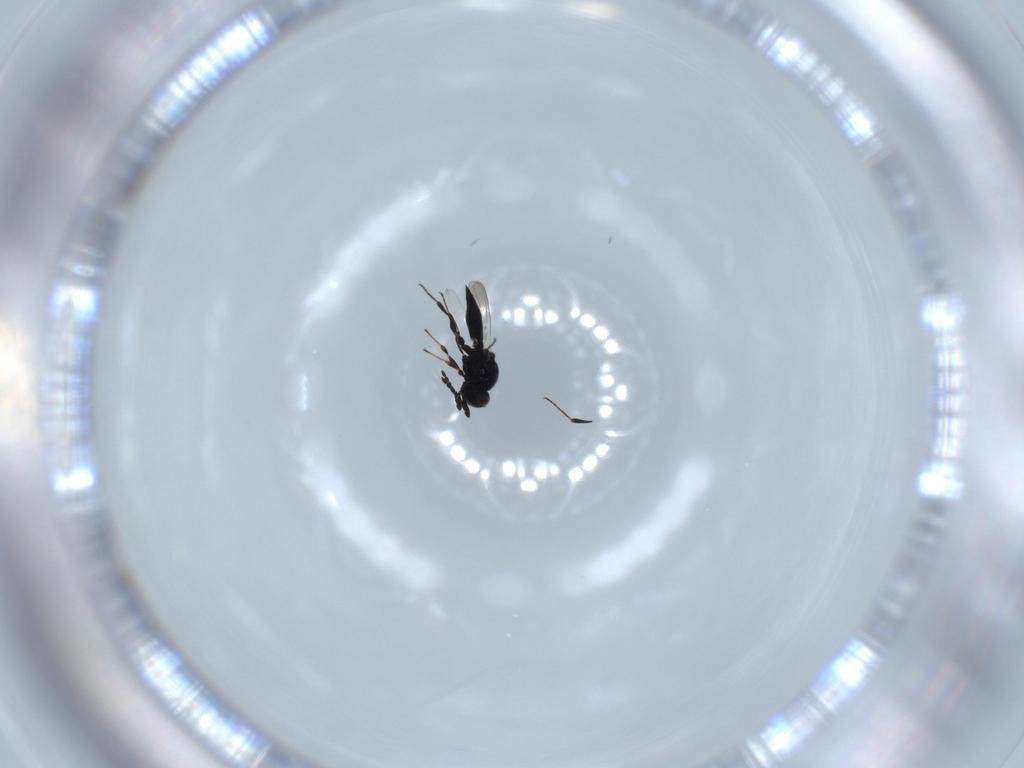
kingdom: Animalia
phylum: Arthropoda
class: Insecta
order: Diptera
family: Mythicomyiidae
